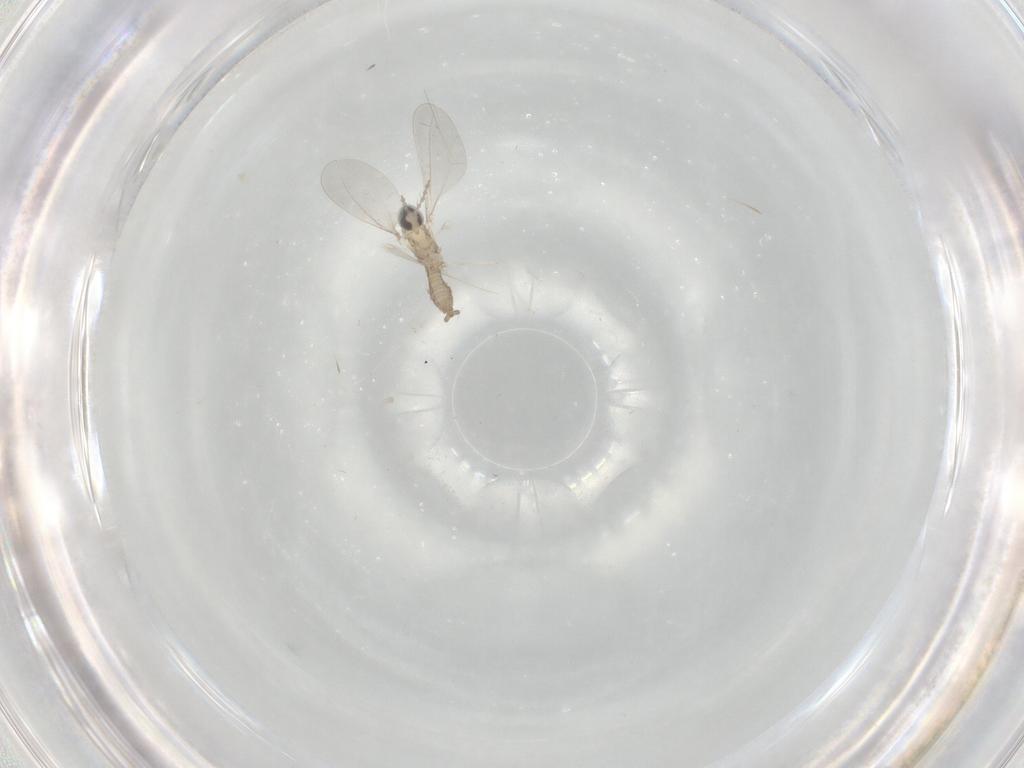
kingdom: Animalia
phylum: Arthropoda
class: Insecta
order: Diptera
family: Cecidomyiidae
